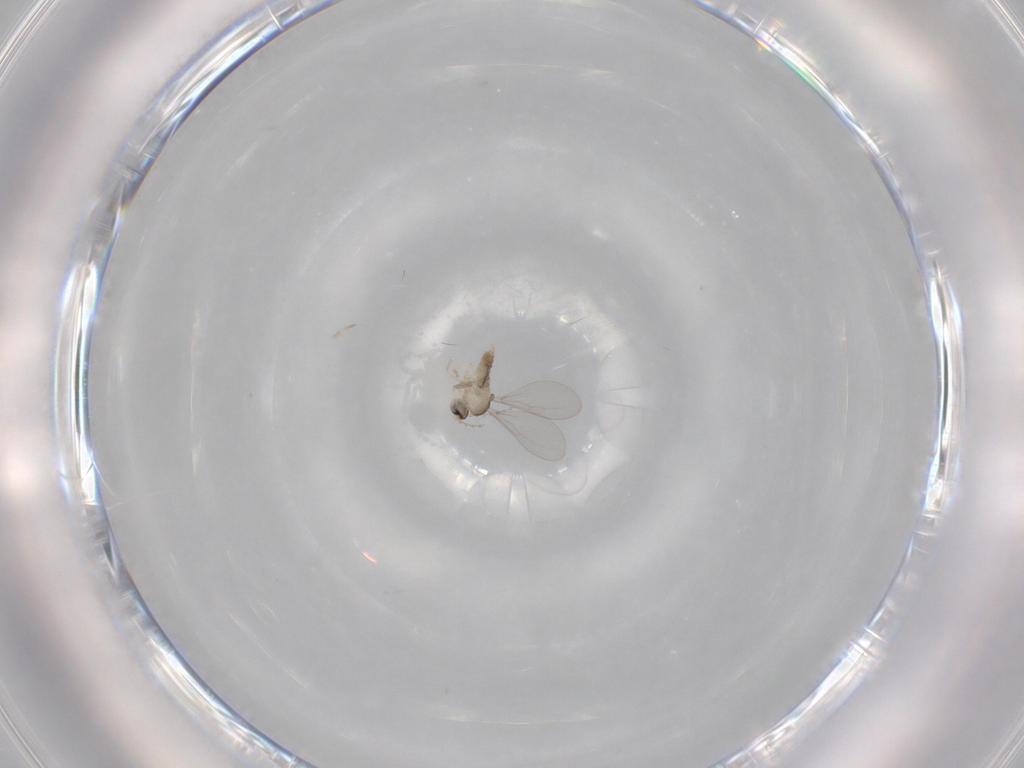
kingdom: Animalia
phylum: Arthropoda
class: Insecta
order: Diptera
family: Cecidomyiidae
